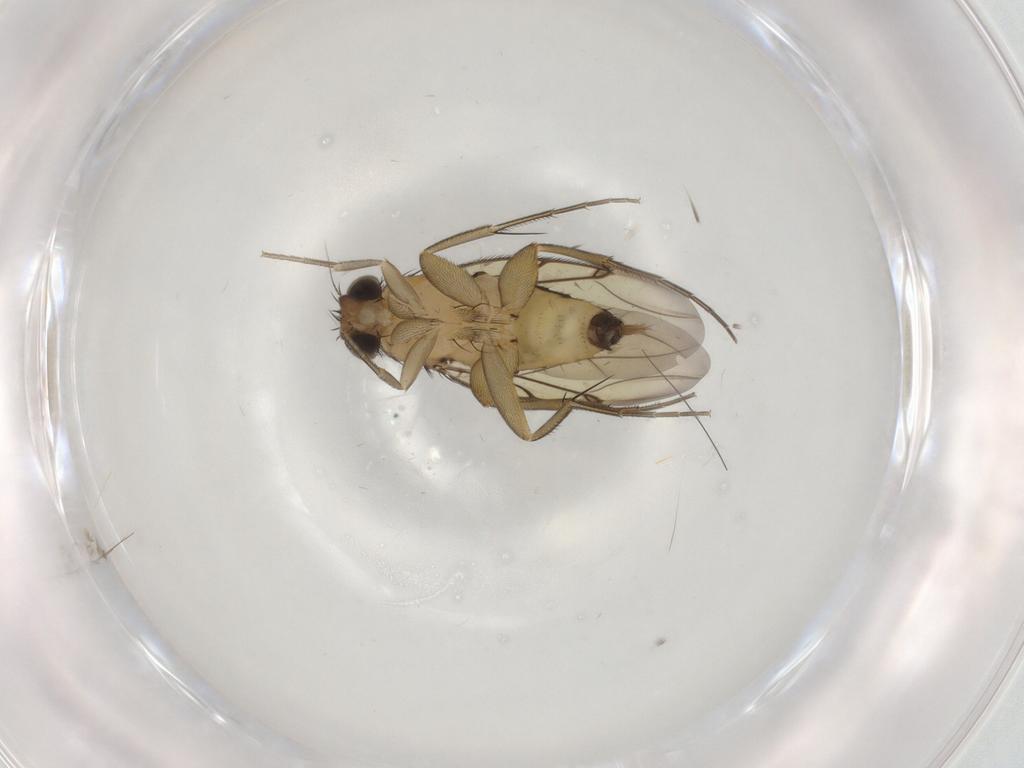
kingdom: Animalia
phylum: Arthropoda
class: Insecta
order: Diptera
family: Phoridae
